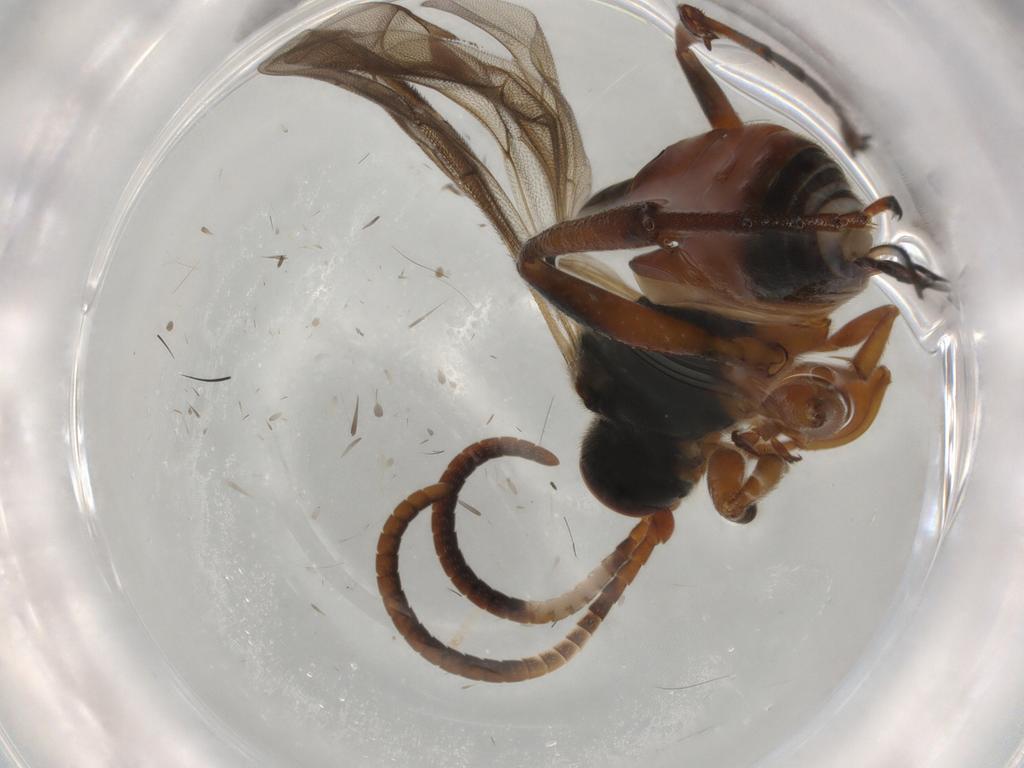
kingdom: Animalia
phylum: Arthropoda
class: Insecta
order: Hymenoptera
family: Ichneumonidae
